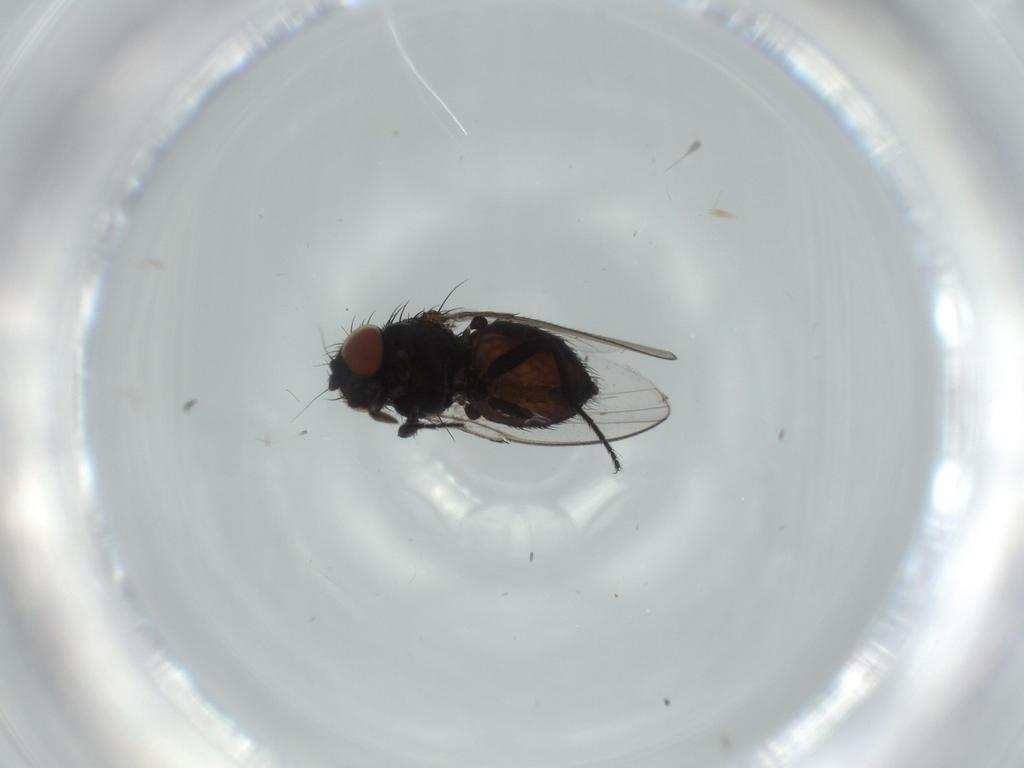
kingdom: Animalia
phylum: Arthropoda
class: Insecta
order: Diptera
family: Milichiidae
